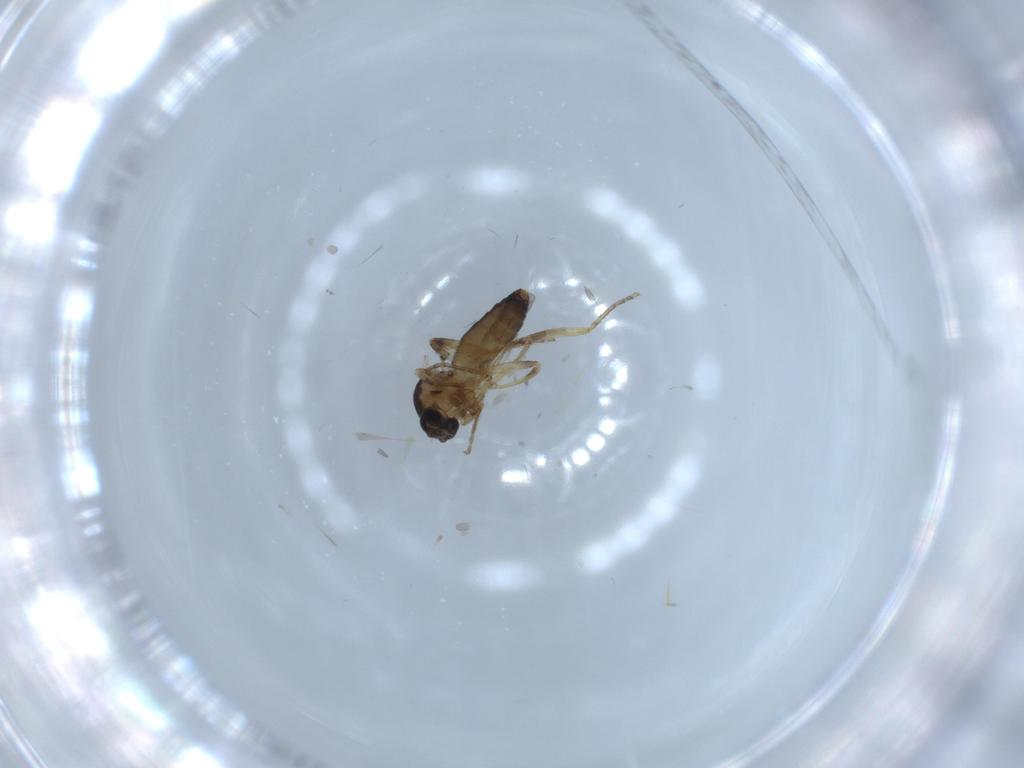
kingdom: Animalia
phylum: Arthropoda
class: Insecta
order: Diptera
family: Ceratopogonidae
